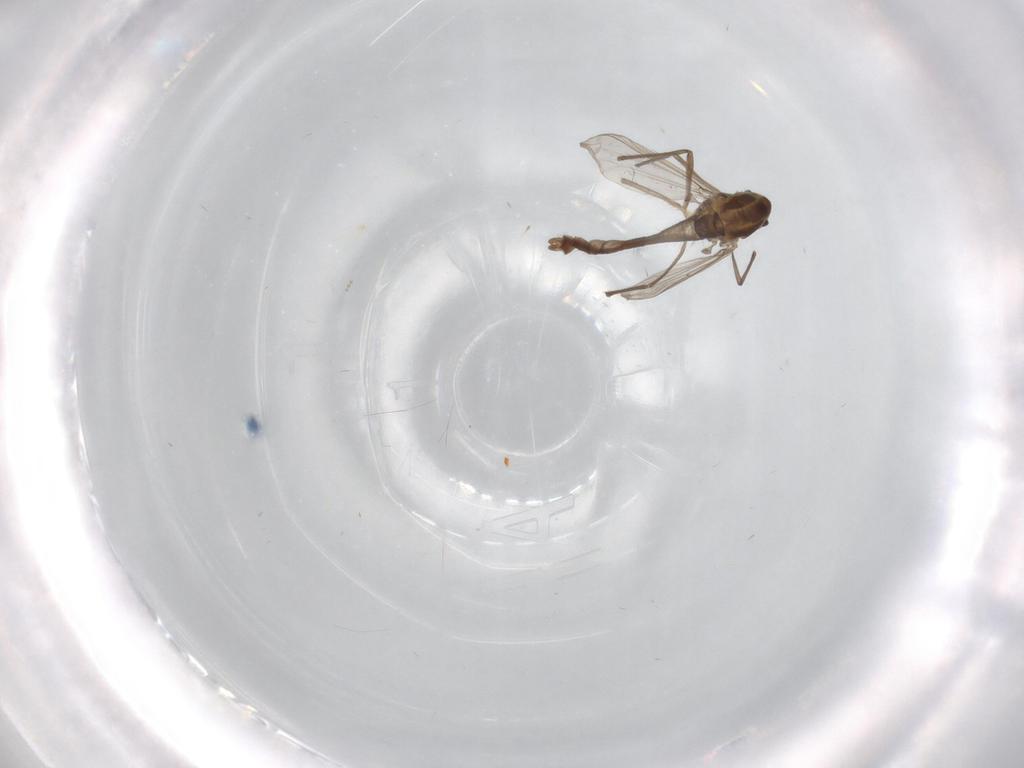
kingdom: Animalia
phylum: Arthropoda
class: Insecta
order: Diptera
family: Chironomidae
